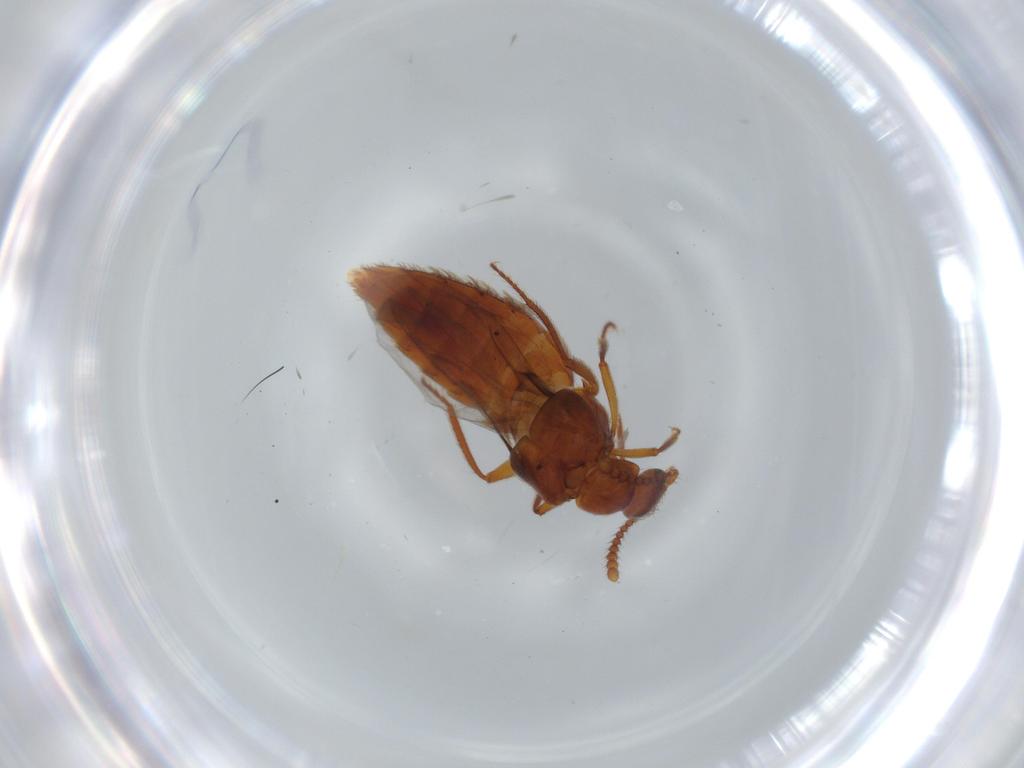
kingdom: Animalia
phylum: Arthropoda
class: Insecta
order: Coleoptera
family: Staphylinidae
